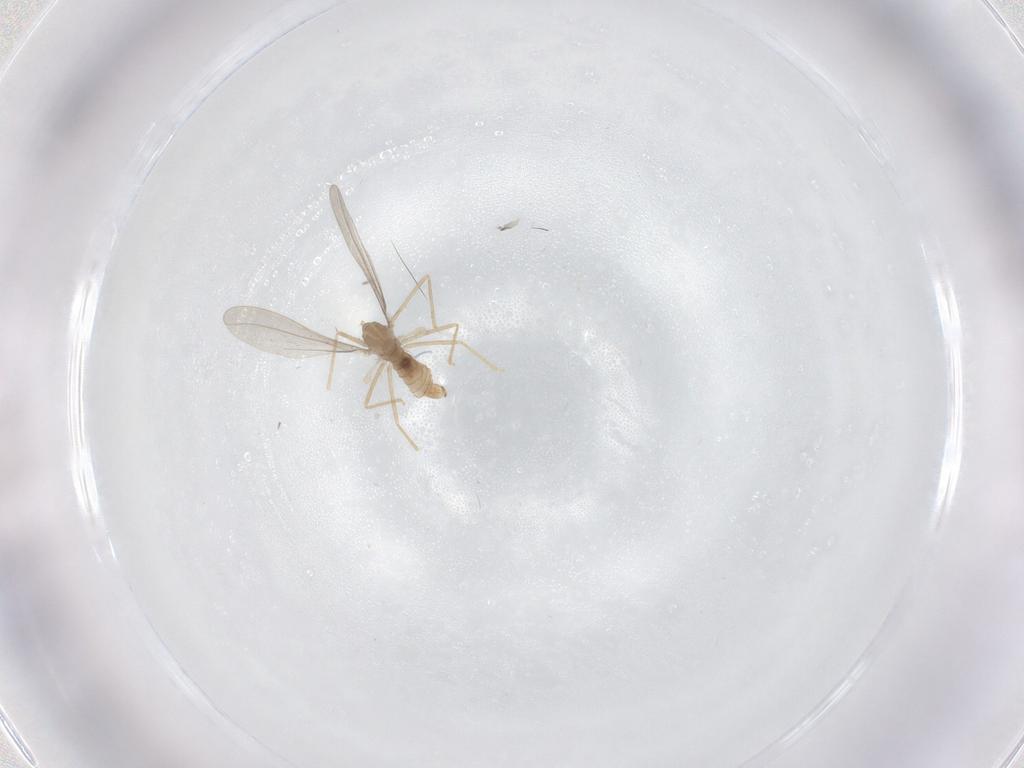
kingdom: Animalia
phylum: Arthropoda
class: Insecta
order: Diptera
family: Cecidomyiidae
